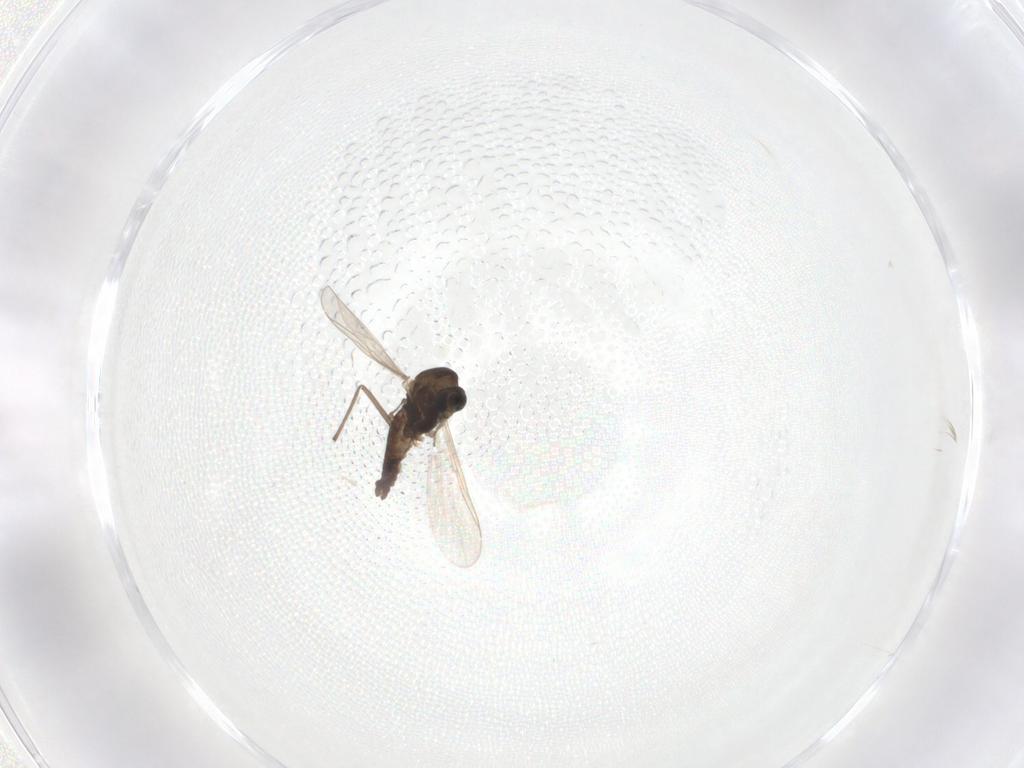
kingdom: Animalia
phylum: Arthropoda
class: Insecta
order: Diptera
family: Chironomidae
